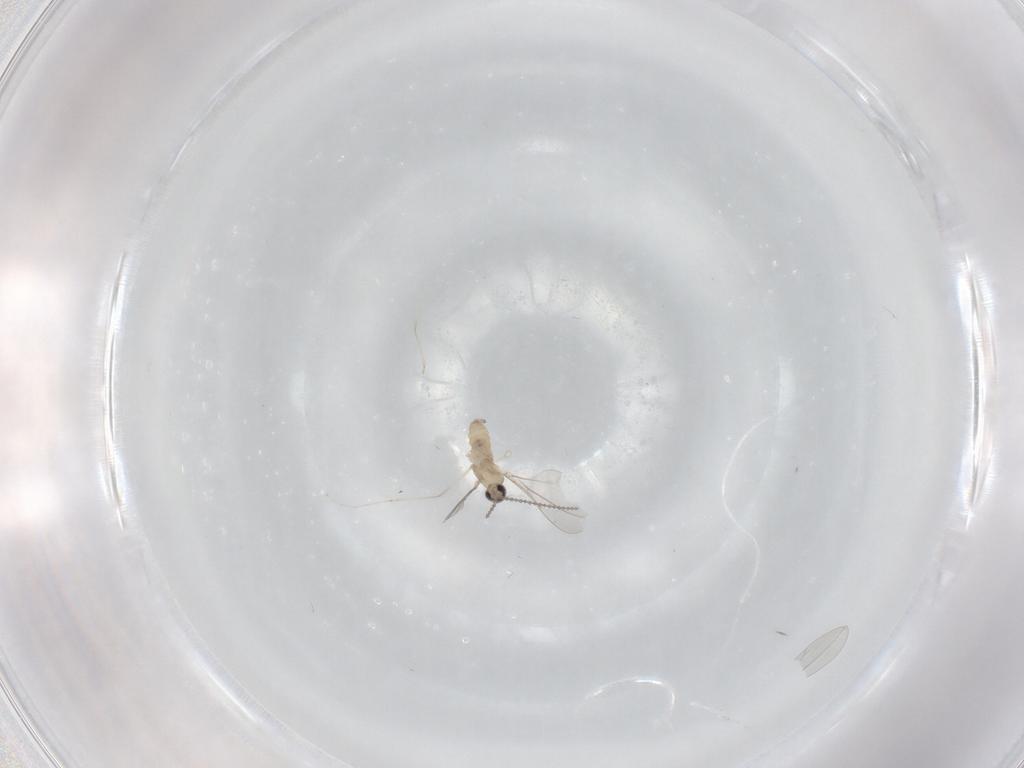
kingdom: Animalia
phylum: Arthropoda
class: Insecta
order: Diptera
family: Cecidomyiidae
